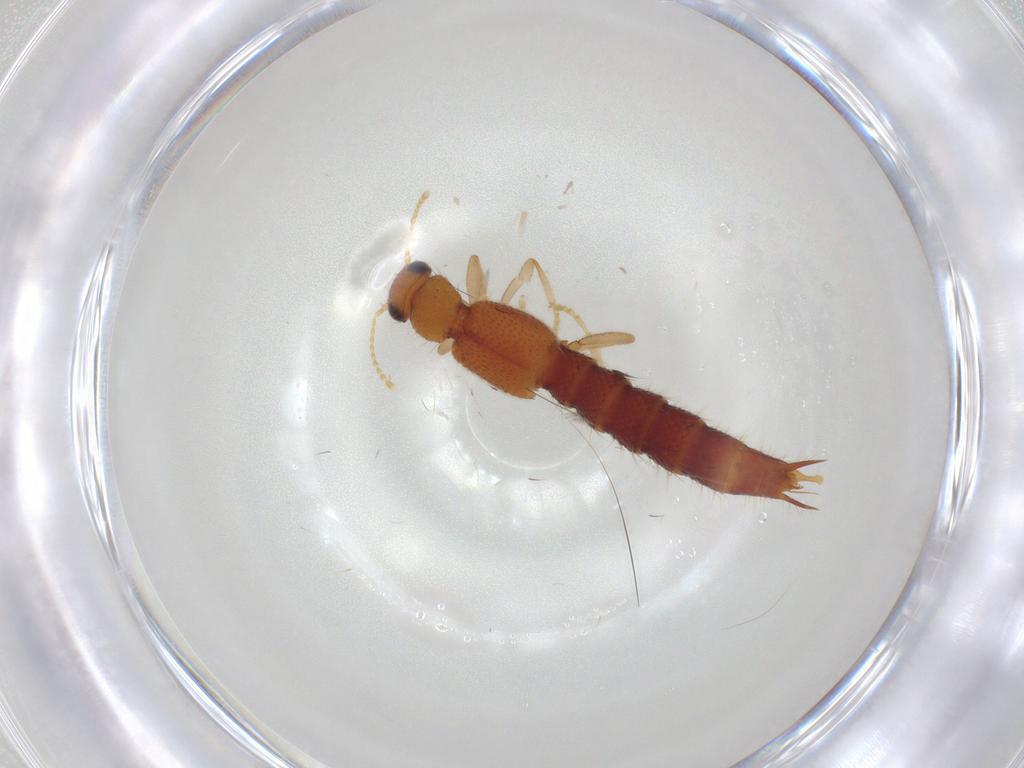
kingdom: Animalia
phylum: Arthropoda
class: Insecta
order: Coleoptera
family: Staphylinidae
